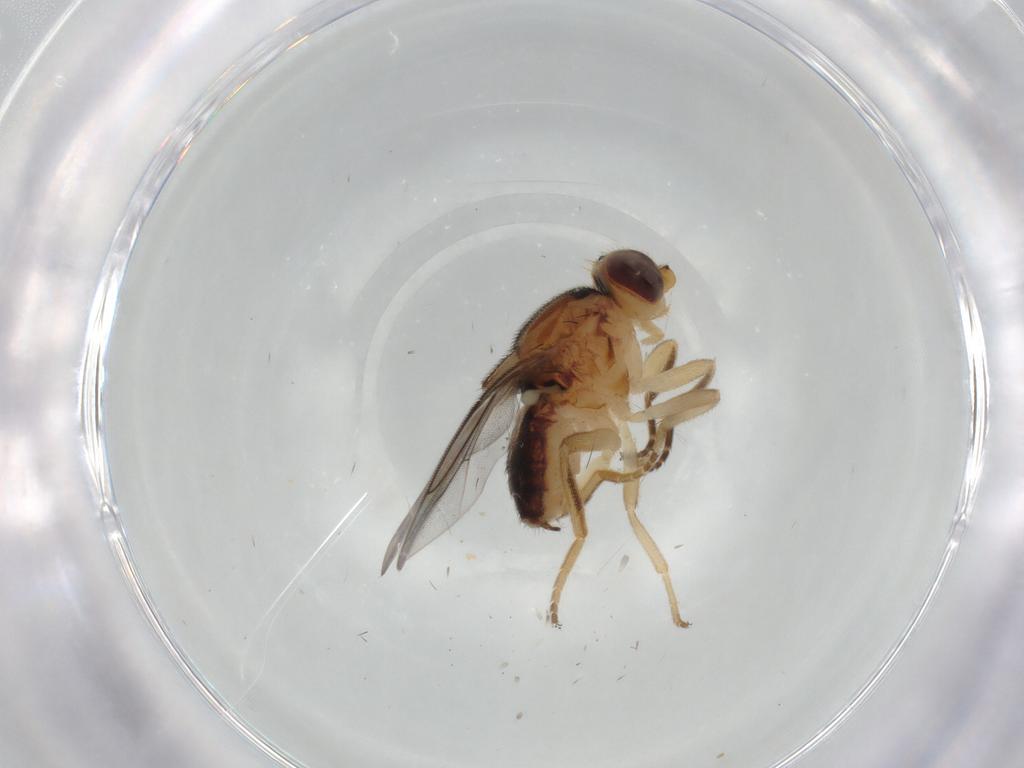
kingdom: Animalia
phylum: Arthropoda
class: Insecta
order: Diptera
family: Chloropidae
